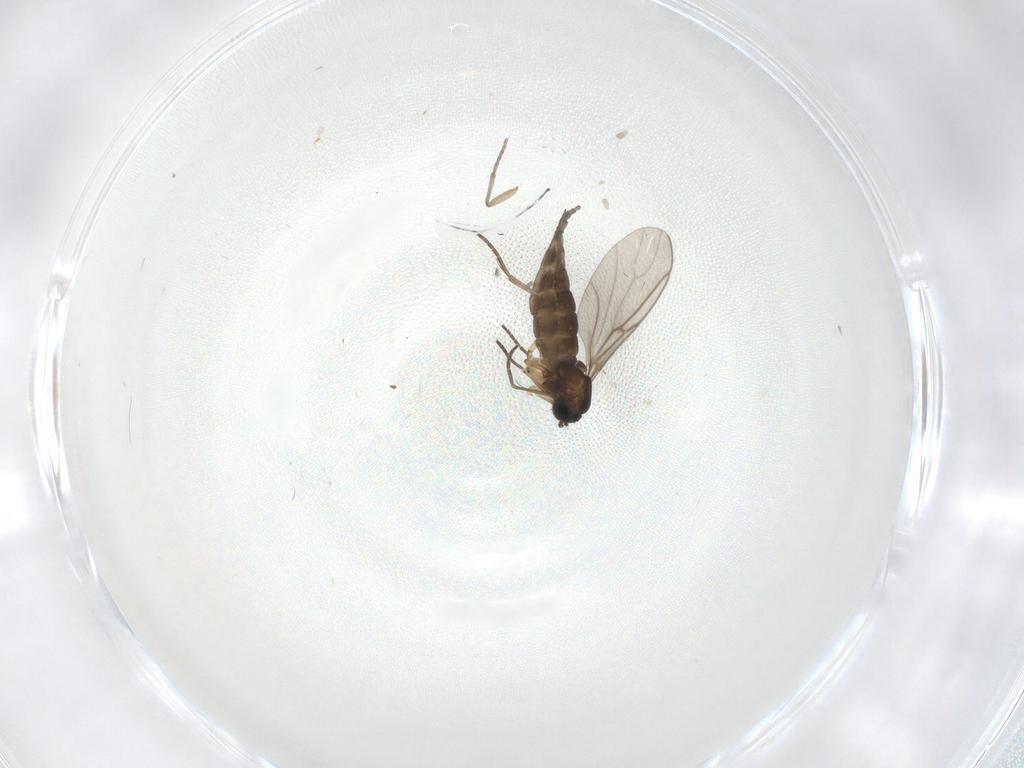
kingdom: Animalia
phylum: Arthropoda
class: Insecta
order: Diptera
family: Sciaridae
